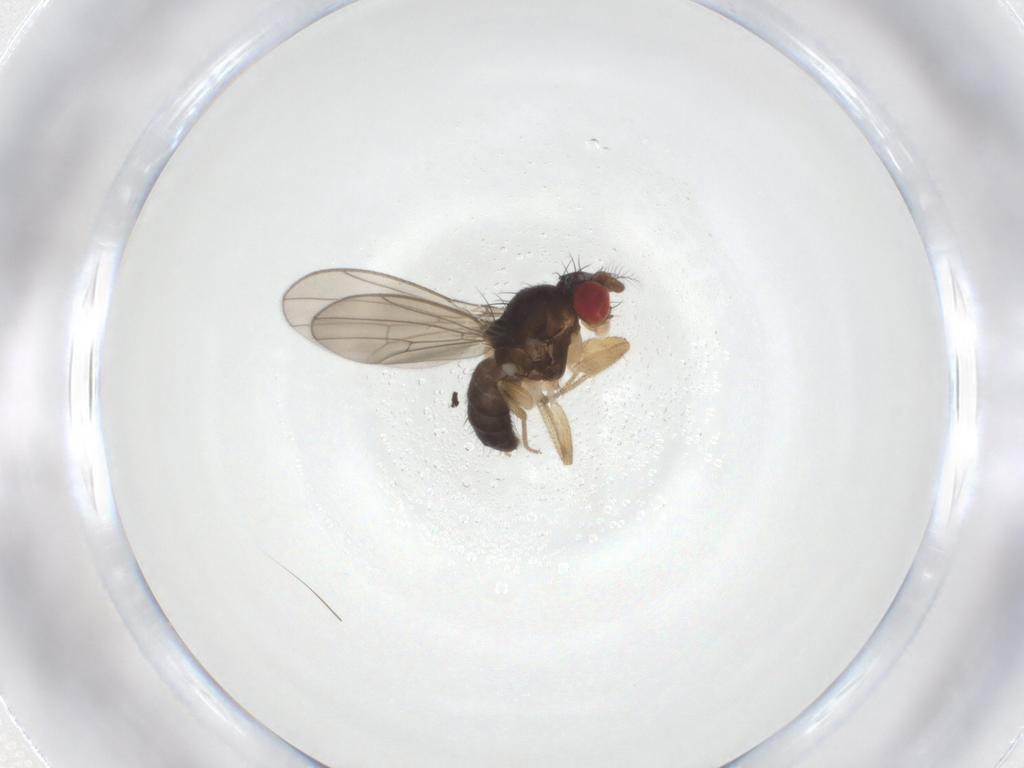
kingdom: Animalia
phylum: Arthropoda
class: Insecta
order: Diptera
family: Drosophilidae
